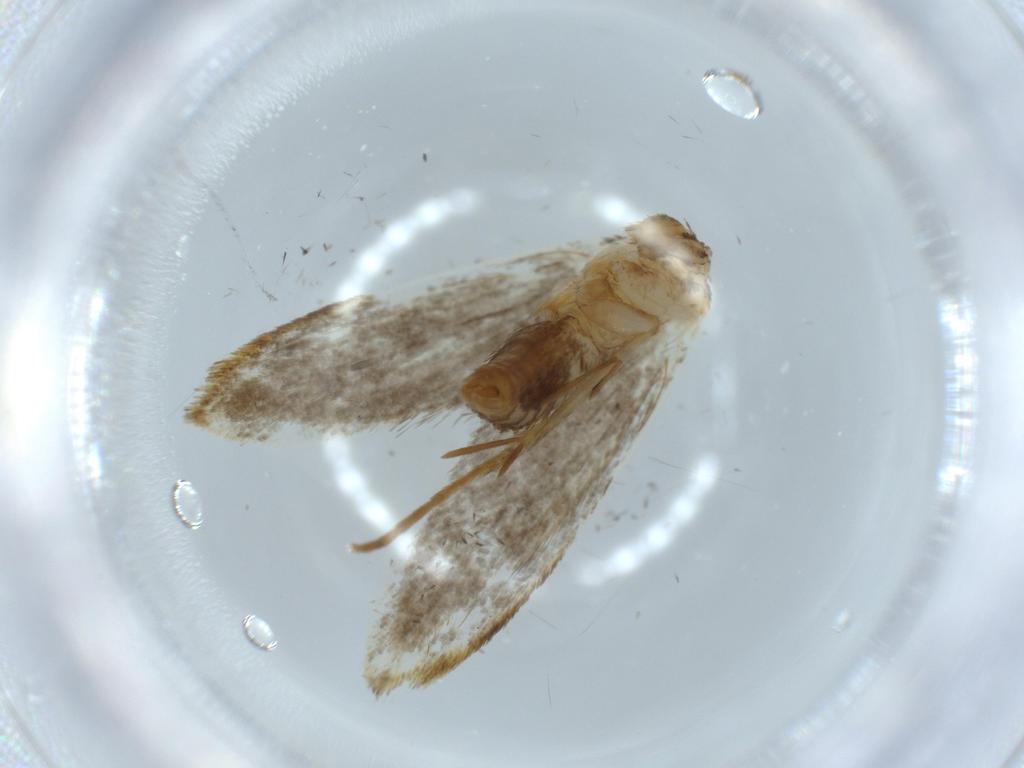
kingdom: Animalia
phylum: Arthropoda
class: Insecta
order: Lepidoptera
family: Tineidae
